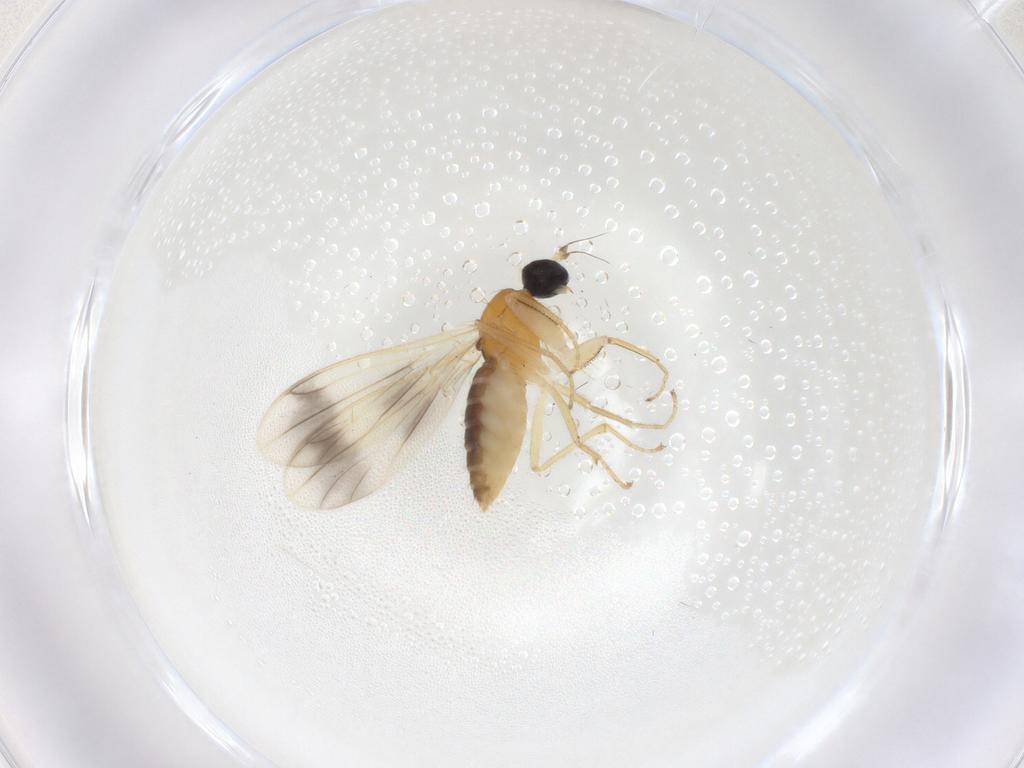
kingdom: Animalia
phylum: Arthropoda
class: Insecta
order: Diptera
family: Empididae
